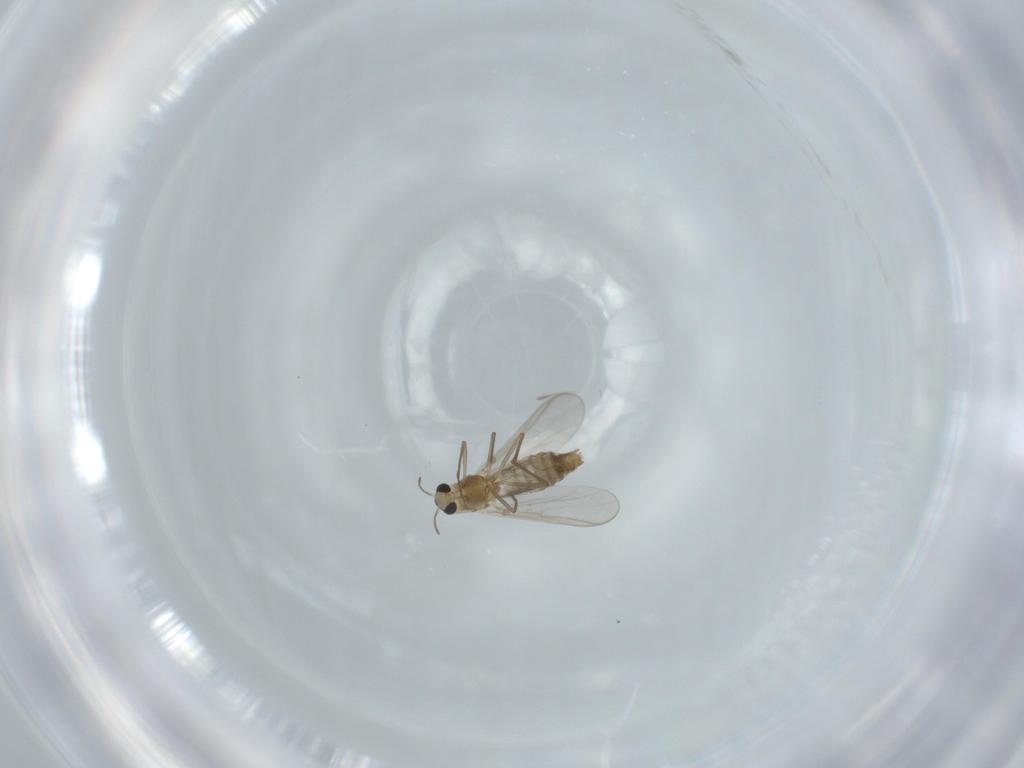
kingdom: Animalia
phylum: Arthropoda
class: Insecta
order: Diptera
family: Chironomidae
